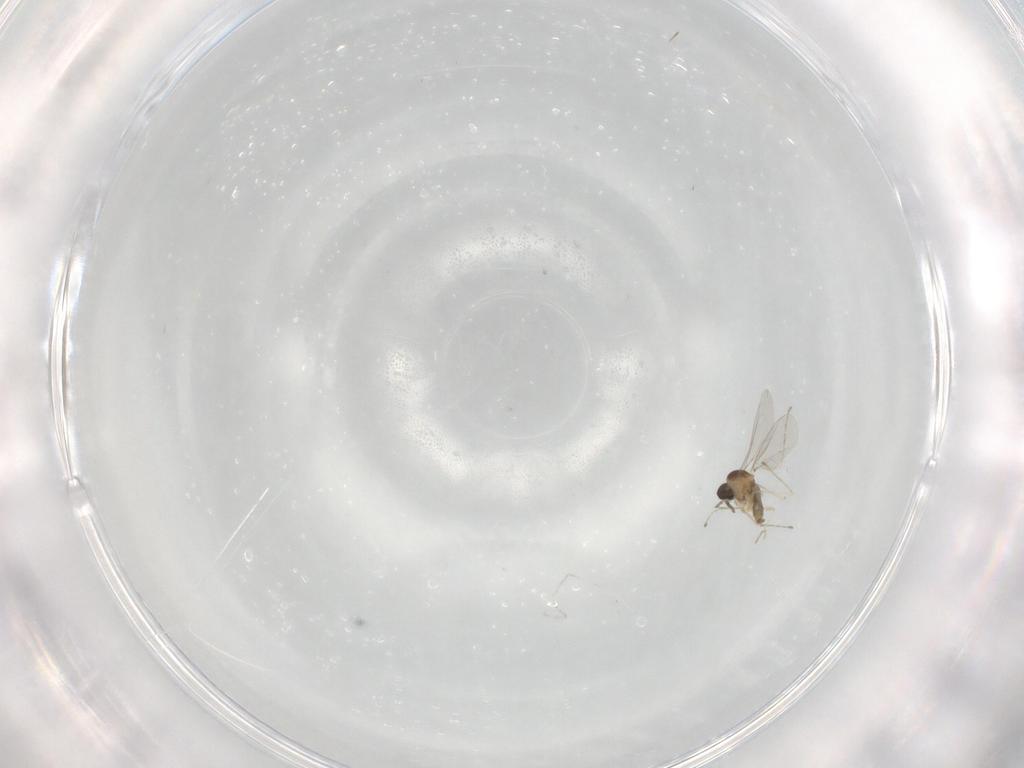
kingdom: Animalia
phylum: Arthropoda
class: Insecta
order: Diptera
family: Cecidomyiidae
